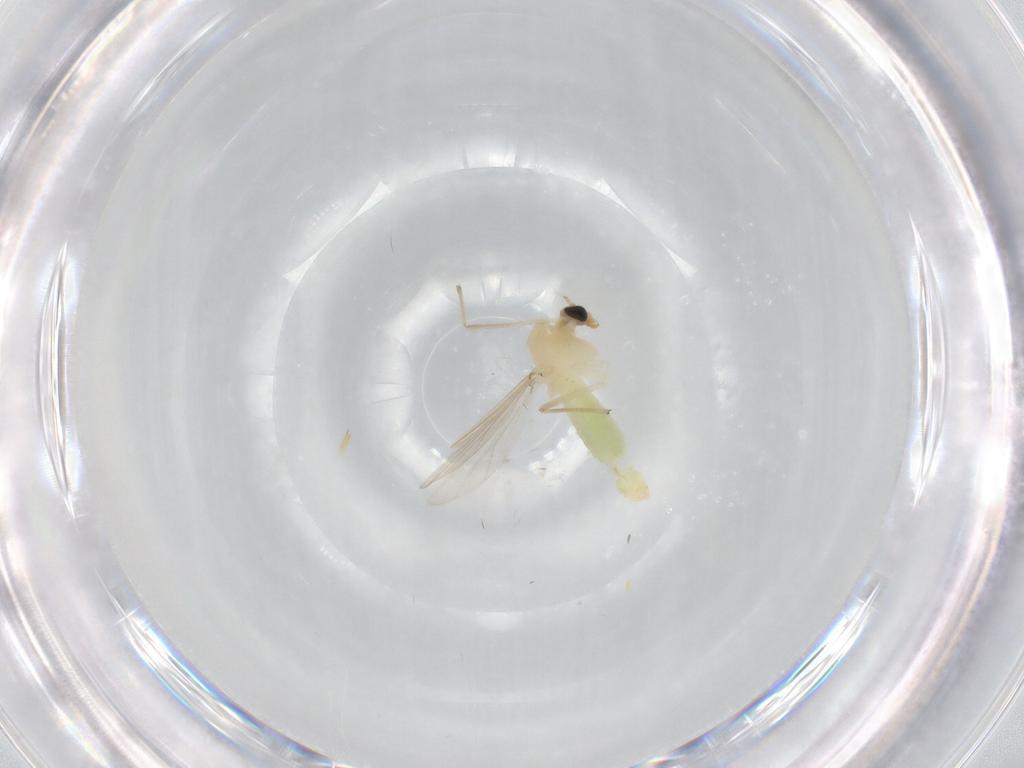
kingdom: Animalia
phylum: Arthropoda
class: Insecta
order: Diptera
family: Chironomidae
